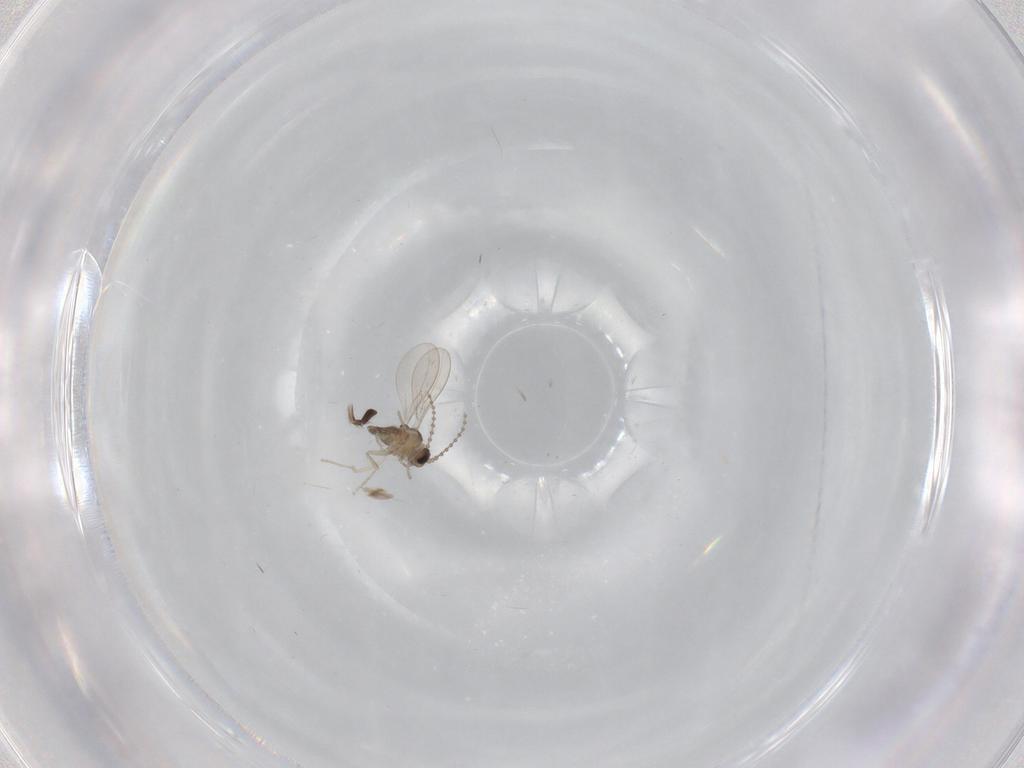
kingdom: Animalia
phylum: Arthropoda
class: Insecta
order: Diptera
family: Cecidomyiidae
